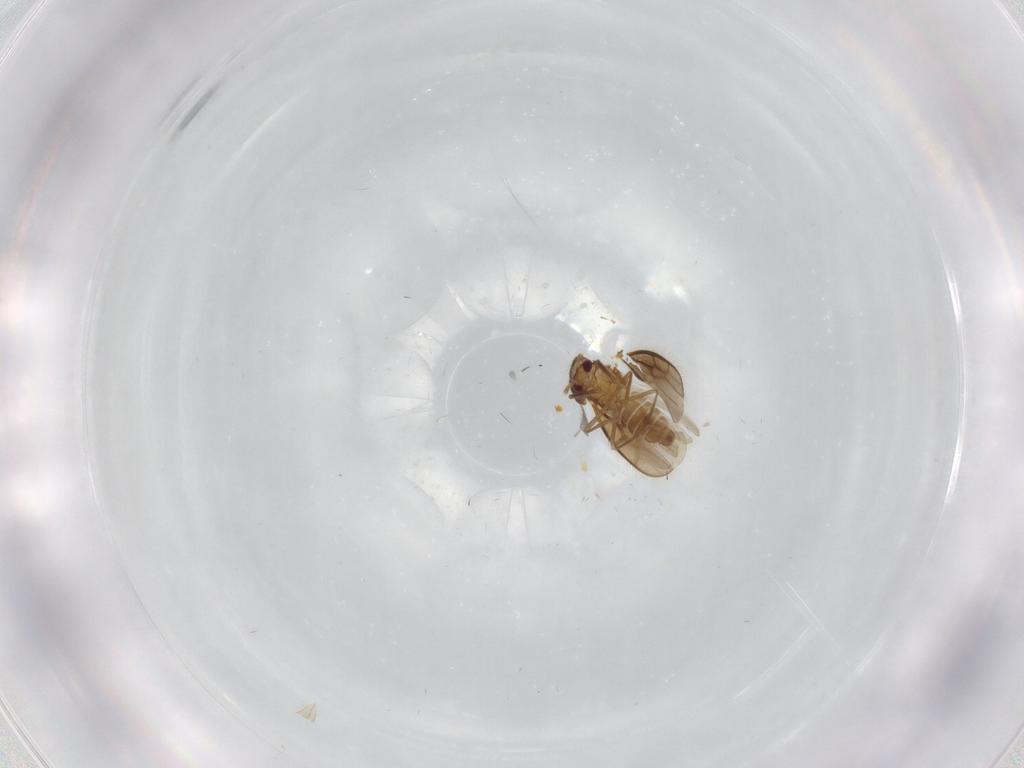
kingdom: Animalia
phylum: Arthropoda
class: Insecta
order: Diptera
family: Sciaridae
